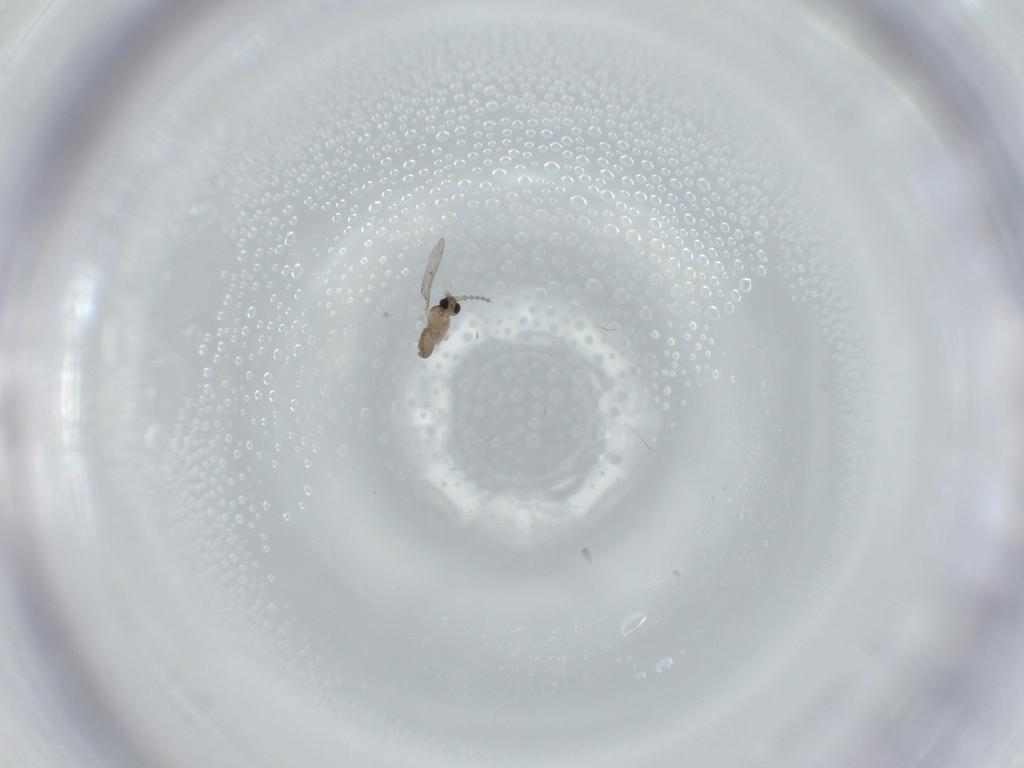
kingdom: Animalia
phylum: Arthropoda
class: Insecta
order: Diptera
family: Cecidomyiidae
